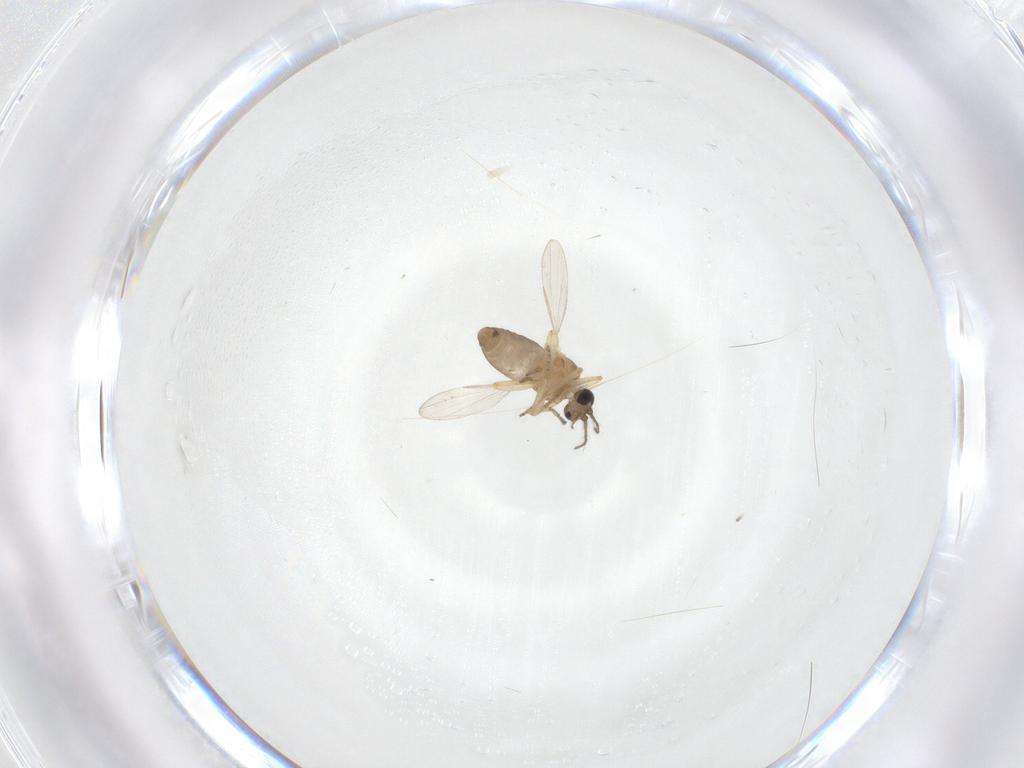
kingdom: Animalia
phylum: Arthropoda
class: Insecta
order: Diptera
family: Ceratopogonidae
